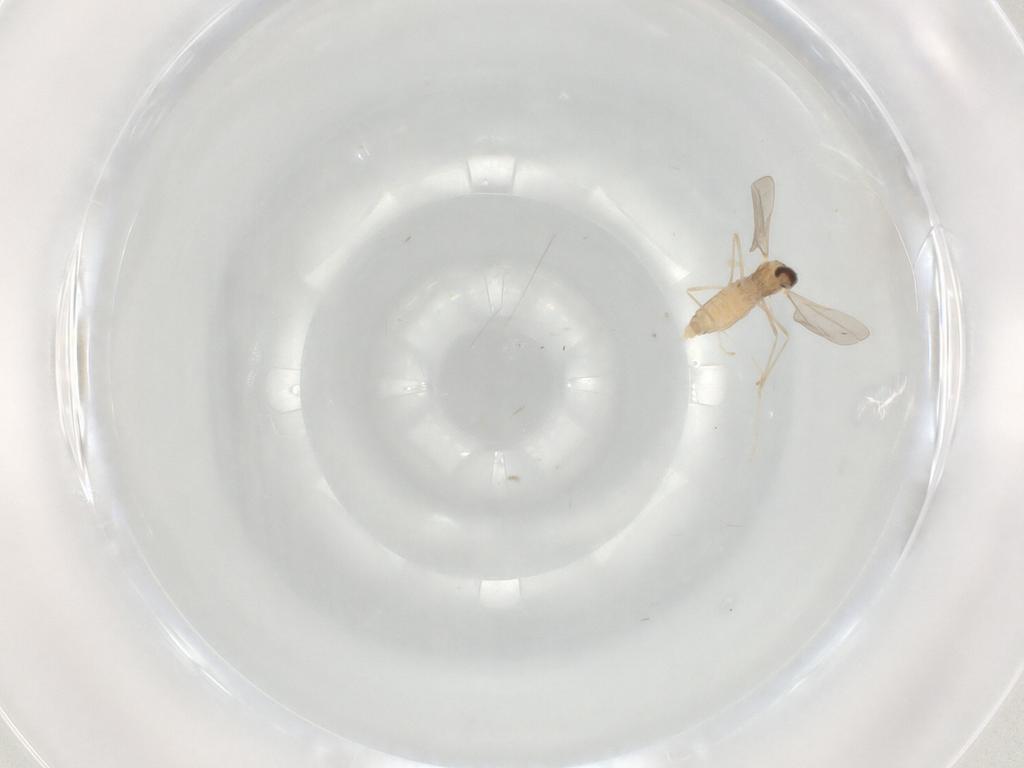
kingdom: Animalia
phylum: Arthropoda
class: Insecta
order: Diptera
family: Cecidomyiidae
